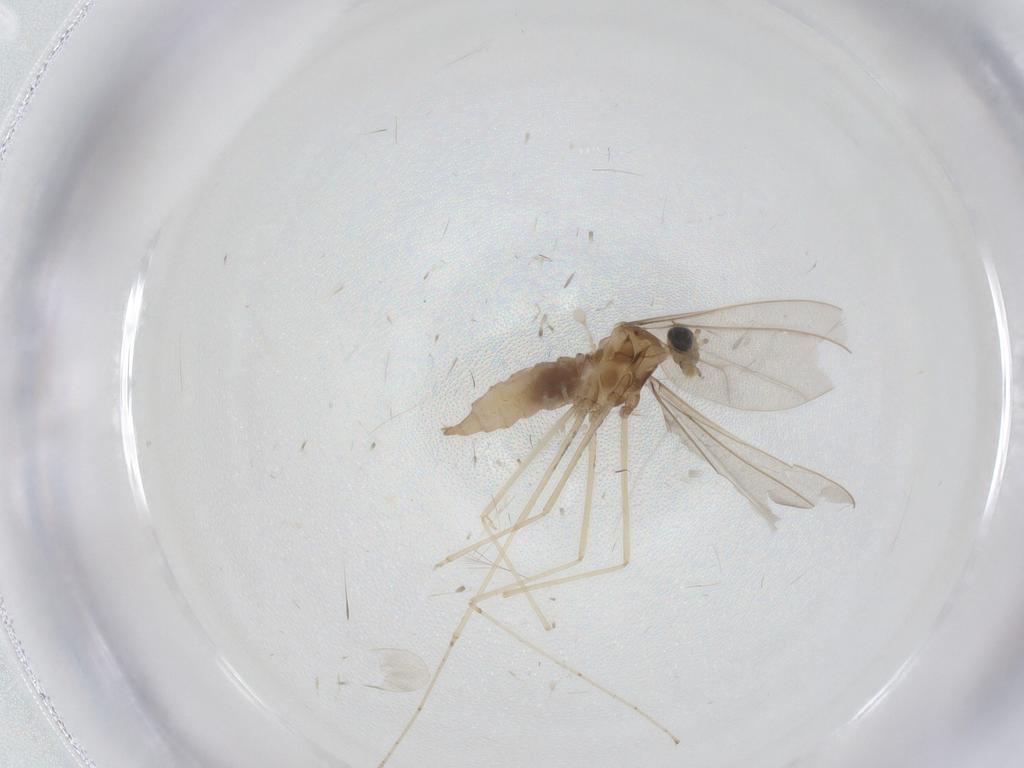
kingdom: Animalia
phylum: Arthropoda
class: Insecta
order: Diptera
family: Cecidomyiidae
